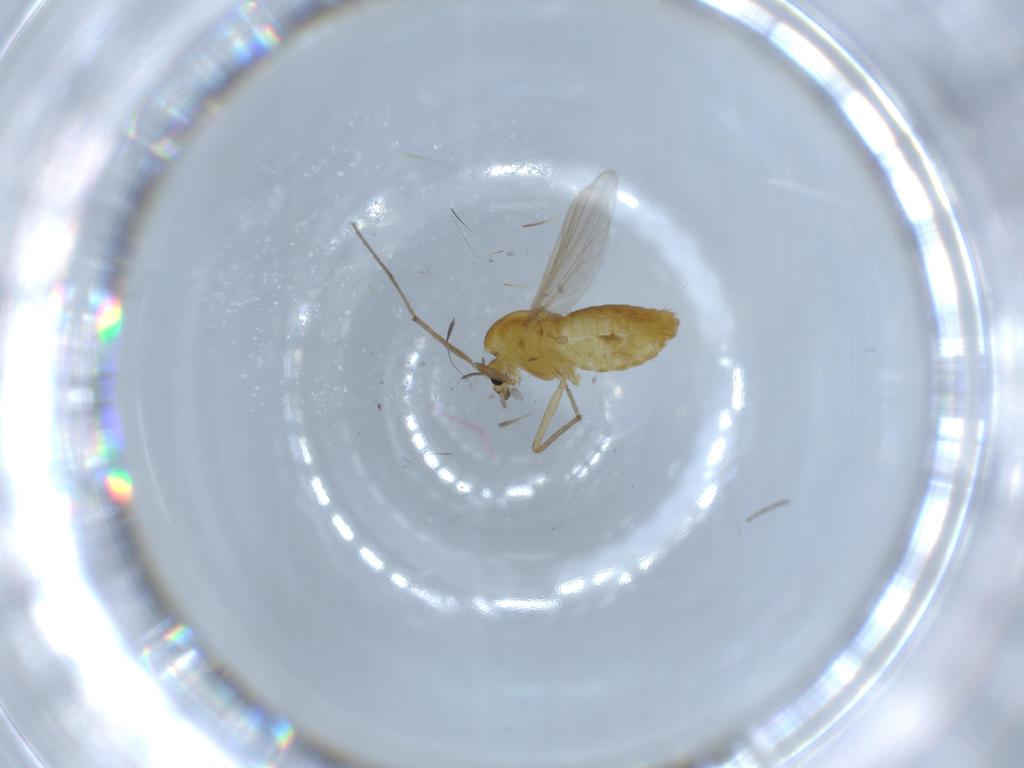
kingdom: Animalia
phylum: Arthropoda
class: Insecta
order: Diptera
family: Chironomidae
